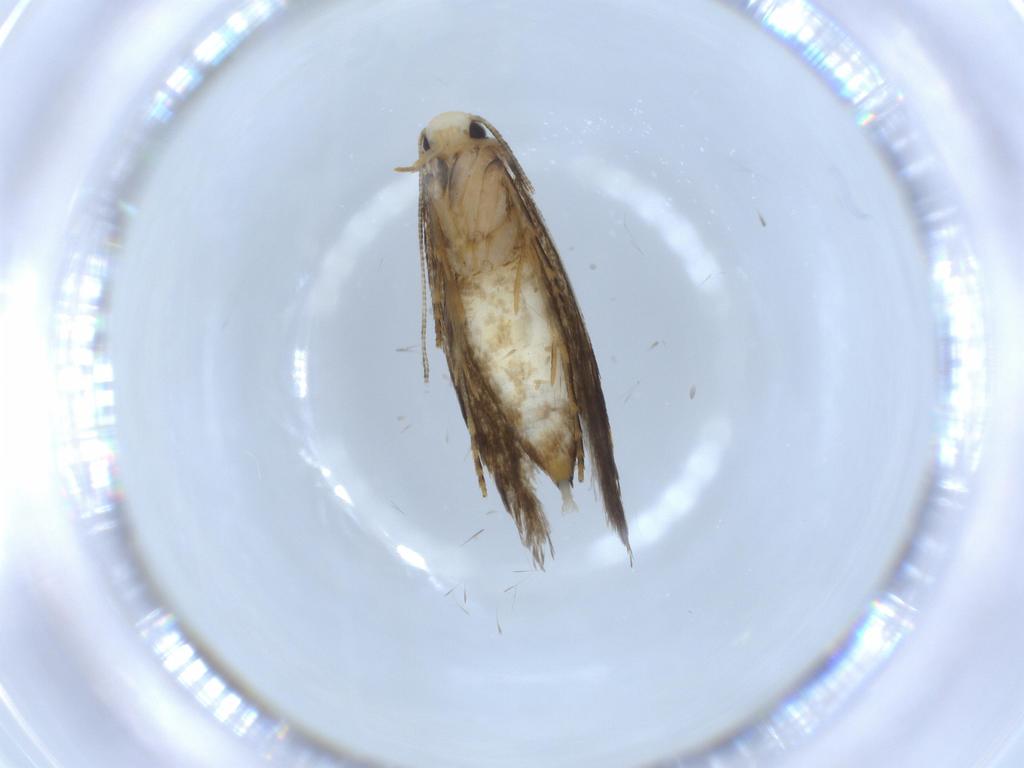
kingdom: Animalia
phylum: Arthropoda
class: Insecta
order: Lepidoptera
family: Tineidae
